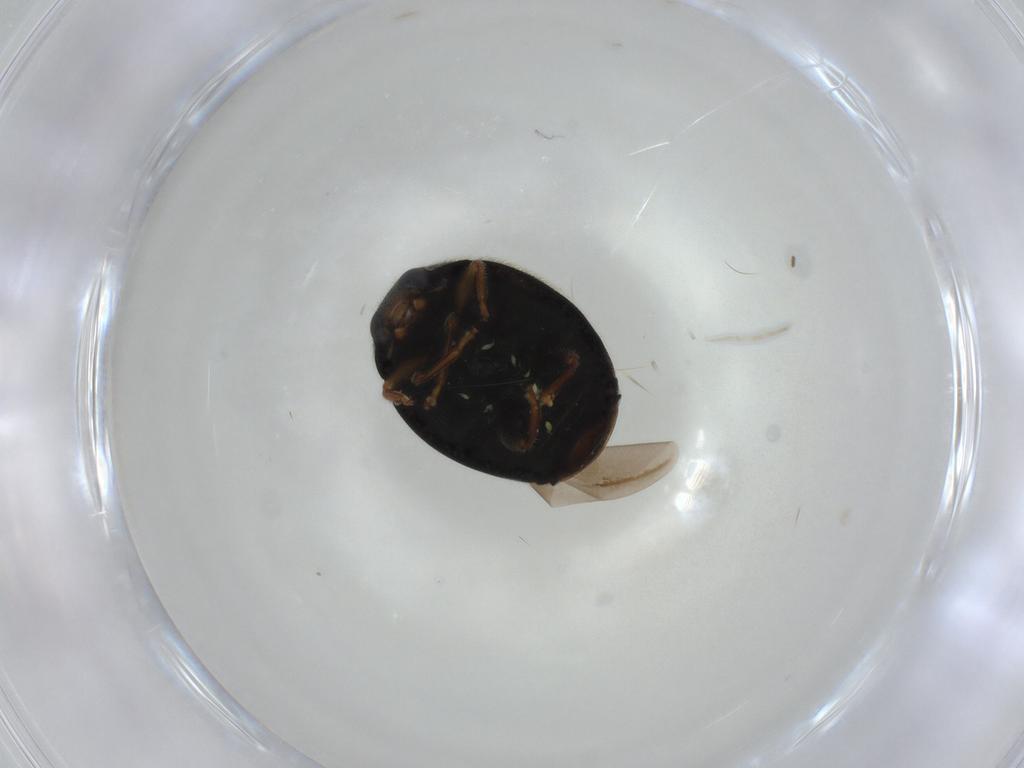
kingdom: Animalia
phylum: Arthropoda
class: Insecta
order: Coleoptera
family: Coccinellidae
